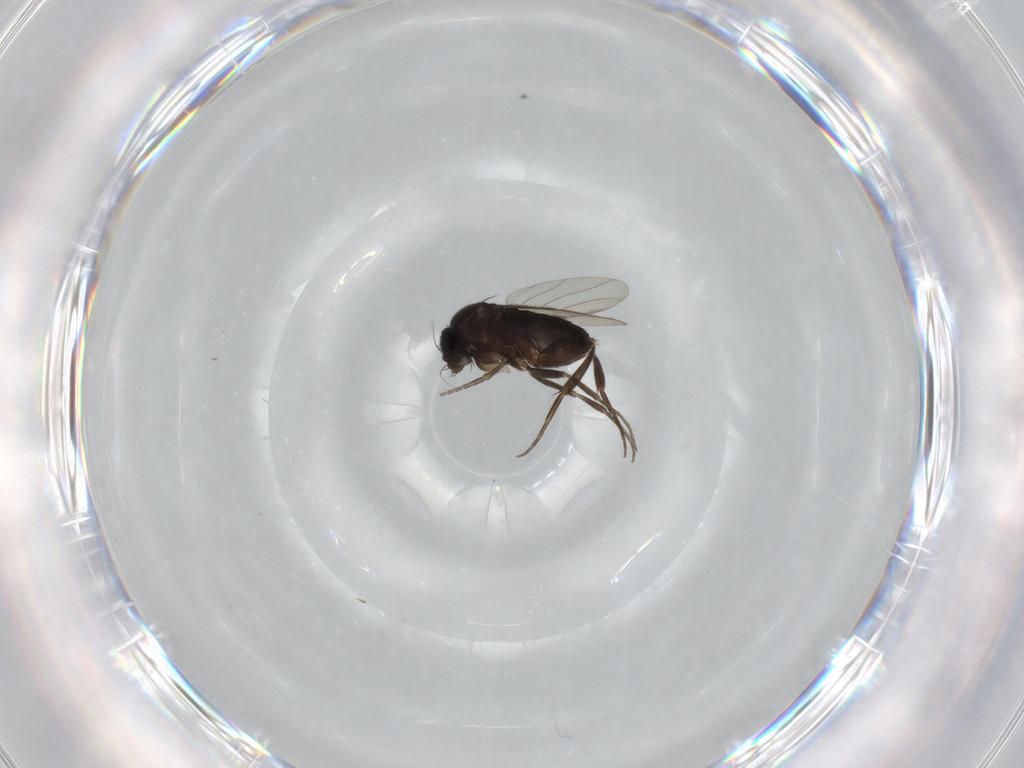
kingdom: Animalia
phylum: Arthropoda
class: Insecta
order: Diptera
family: Phoridae
